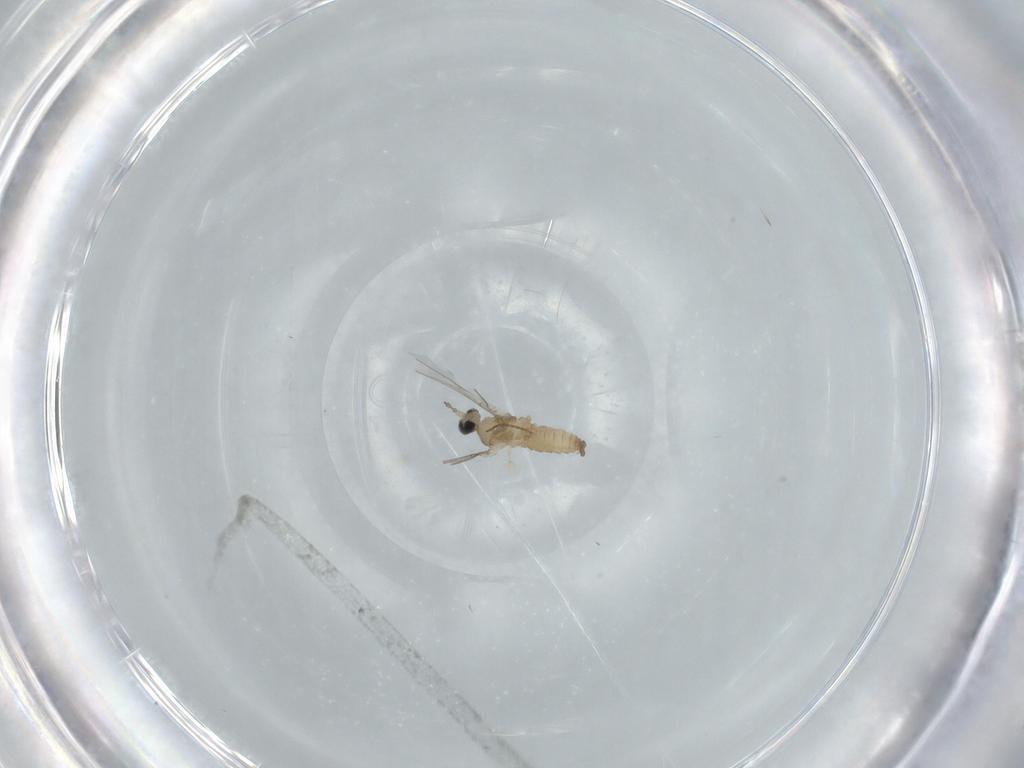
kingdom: Animalia
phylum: Arthropoda
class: Insecta
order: Diptera
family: Cecidomyiidae
